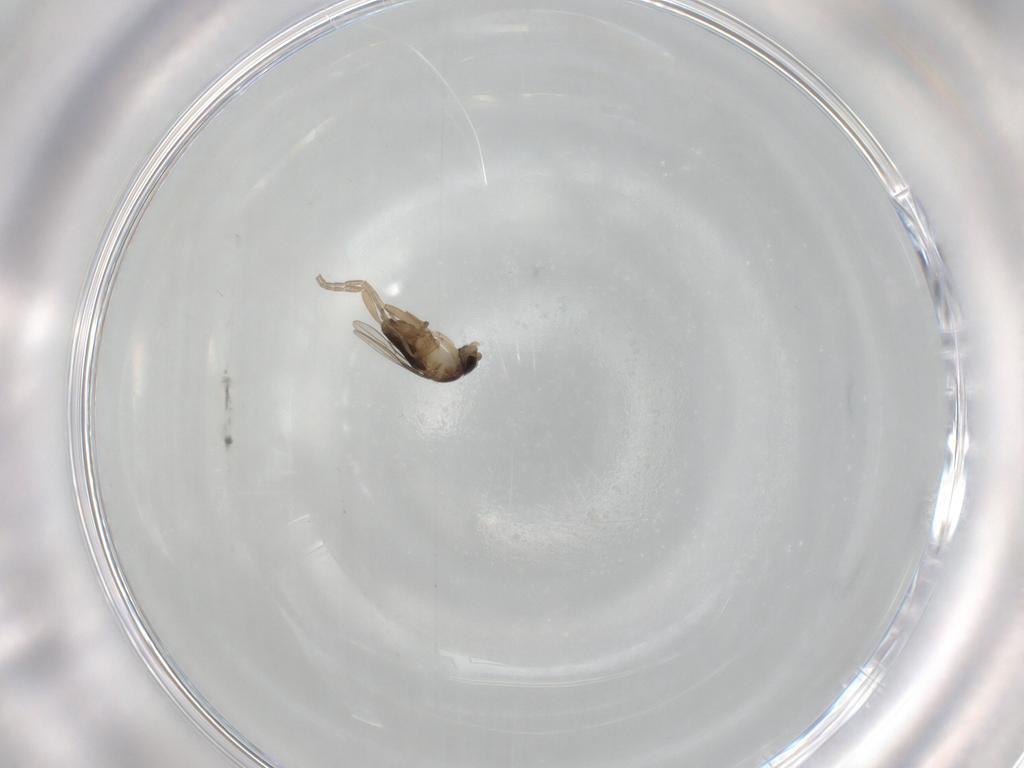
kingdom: Animalia
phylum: Arthropoda
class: Insecta
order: Diptera
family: Phoridae
